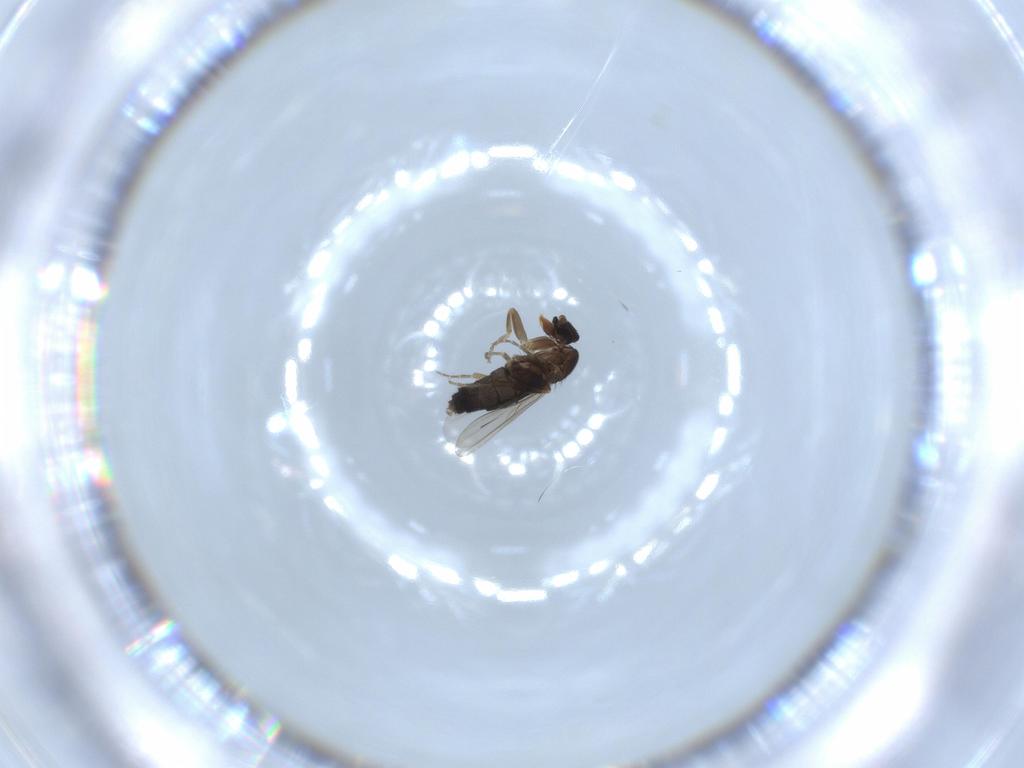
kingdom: Animalia
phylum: Arthropoda
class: Insecta
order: Diptera
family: Phoridae
